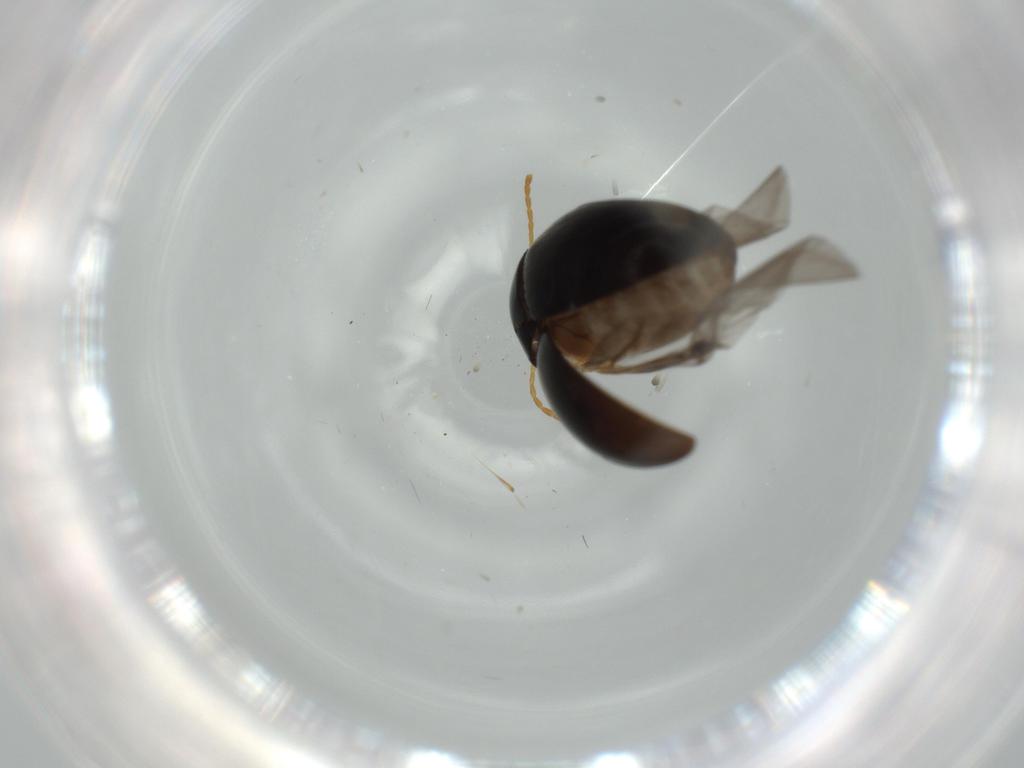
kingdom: Animalia
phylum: Arthropoda
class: Insecta
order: Coleoptera
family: Chrysomelidae
